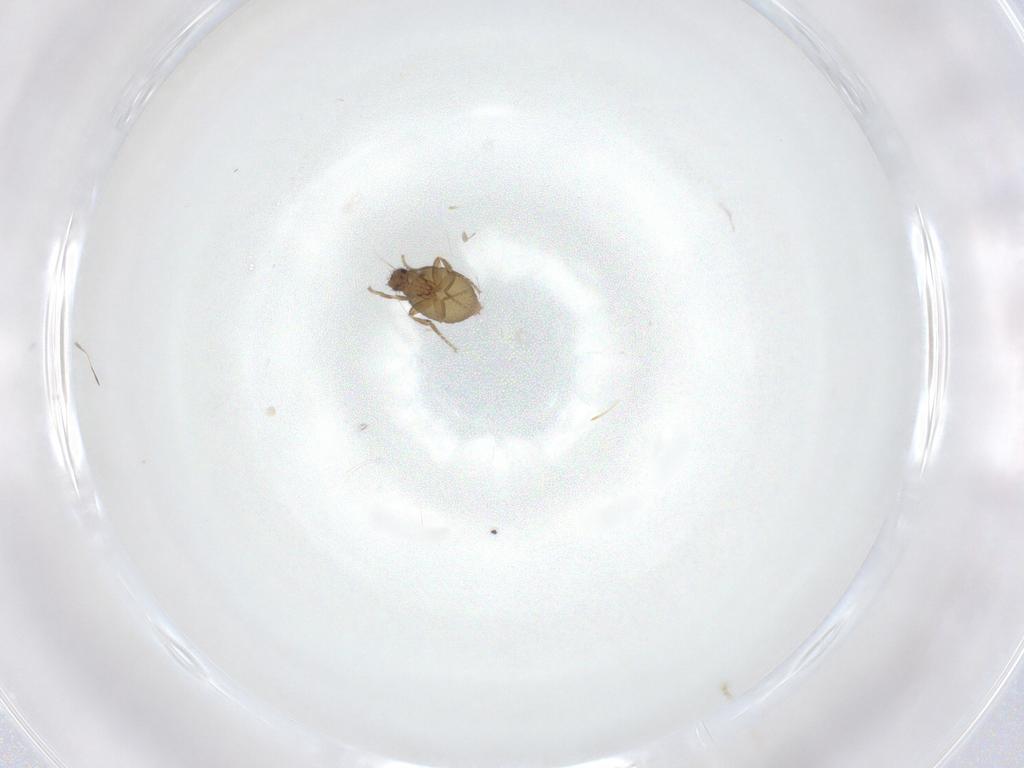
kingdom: Animalia
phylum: Arthropoda
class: Insecta
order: Diptera
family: Phoridae
